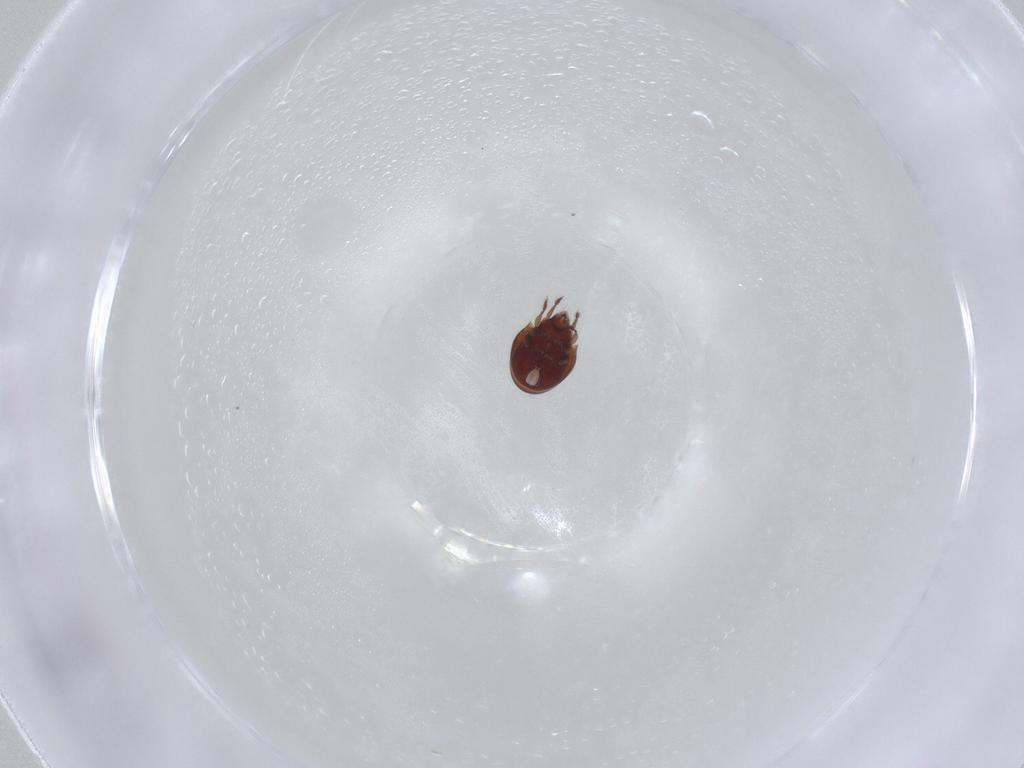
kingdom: Animalia
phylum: Arthropoda
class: Arachnida
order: Sarcoptiformes
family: Ceratozetidae
